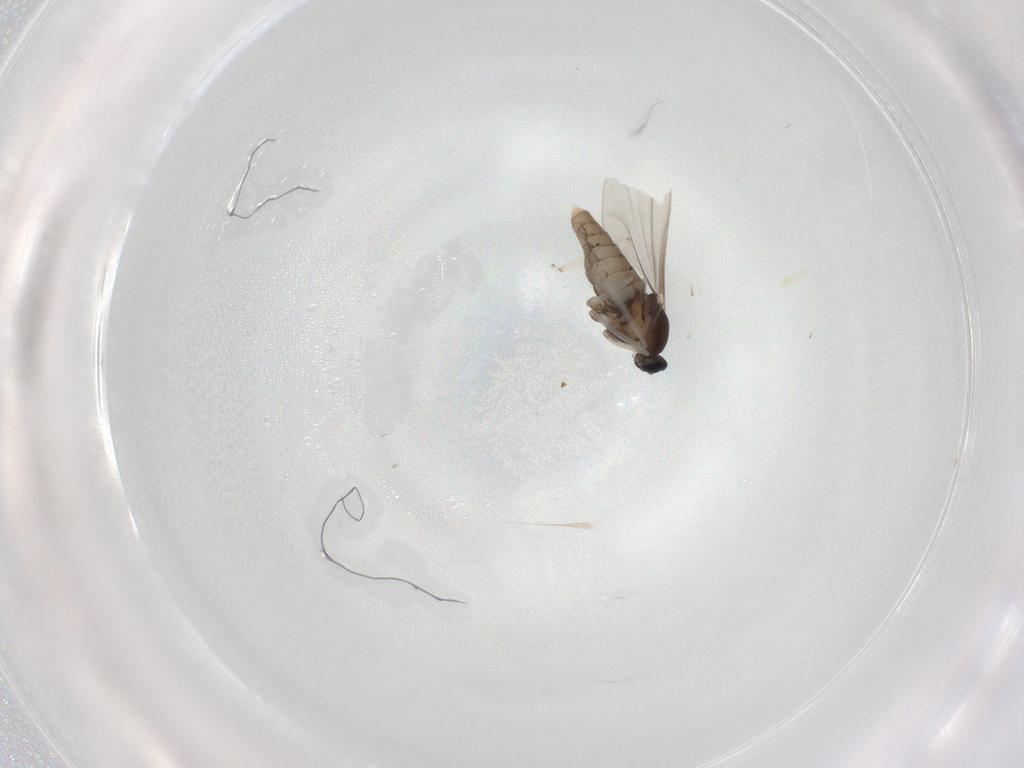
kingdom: Animalia
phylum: Arthropoda
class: Insecta
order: Diptera
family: Cecidomyiidae
